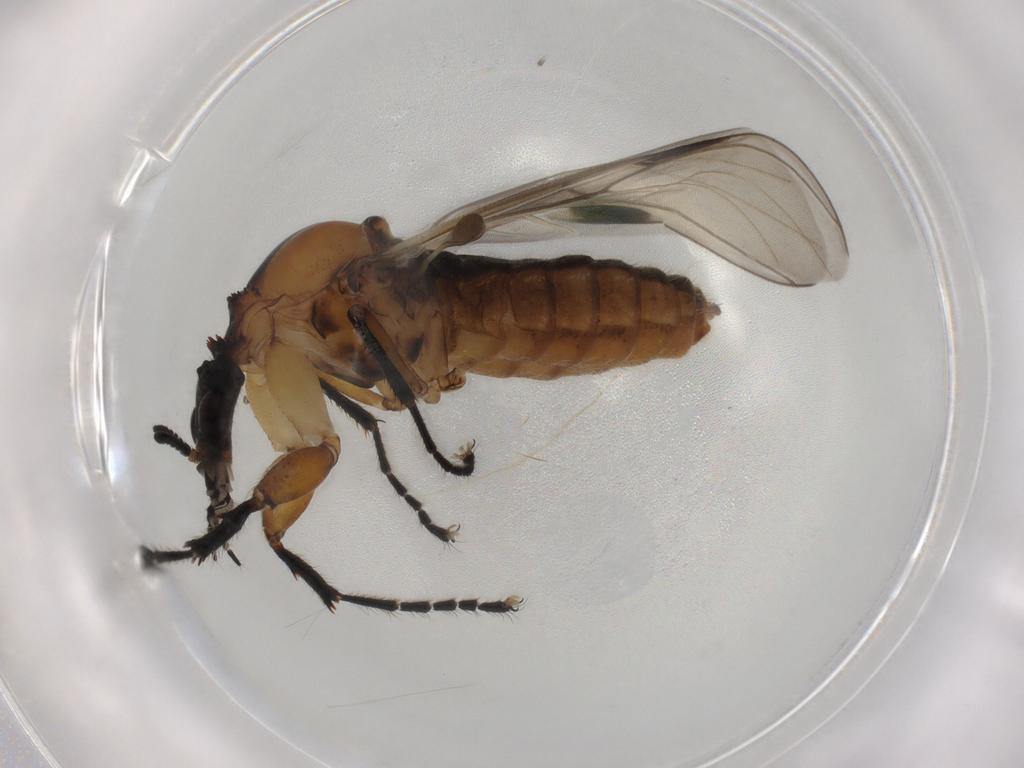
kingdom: Animalia
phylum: Arthropoda
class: Insecta
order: Diptera
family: Bibionidae
